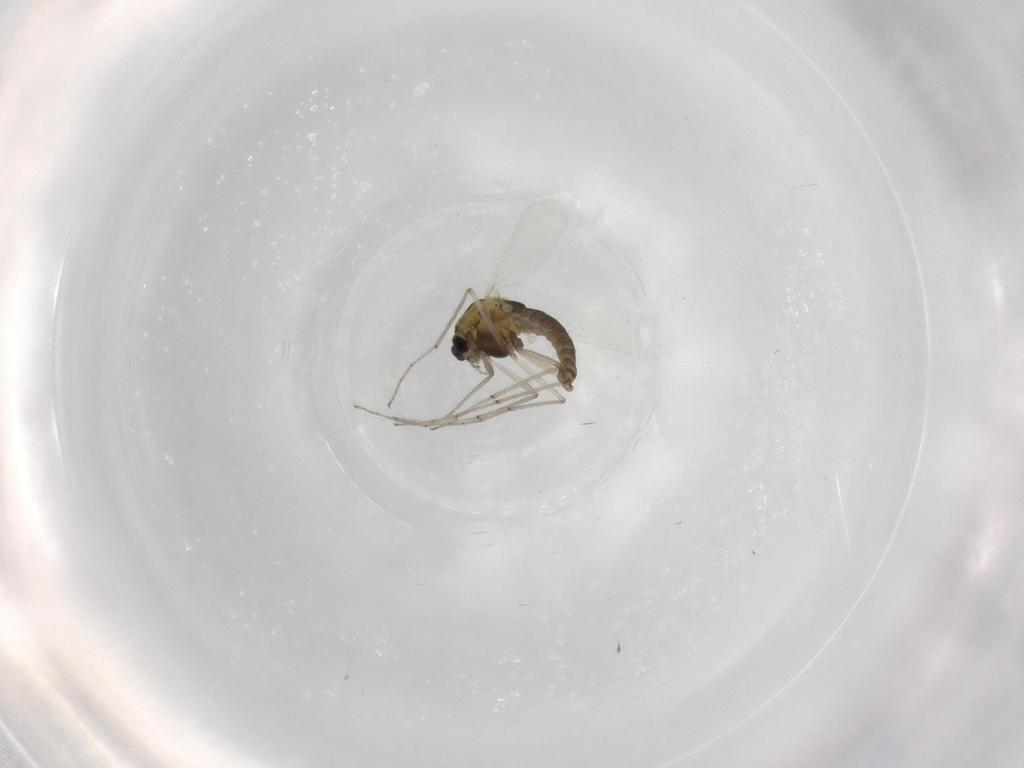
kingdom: Animalia
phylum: Arthropoda
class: Insecta
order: Diptera
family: Chironomidae
